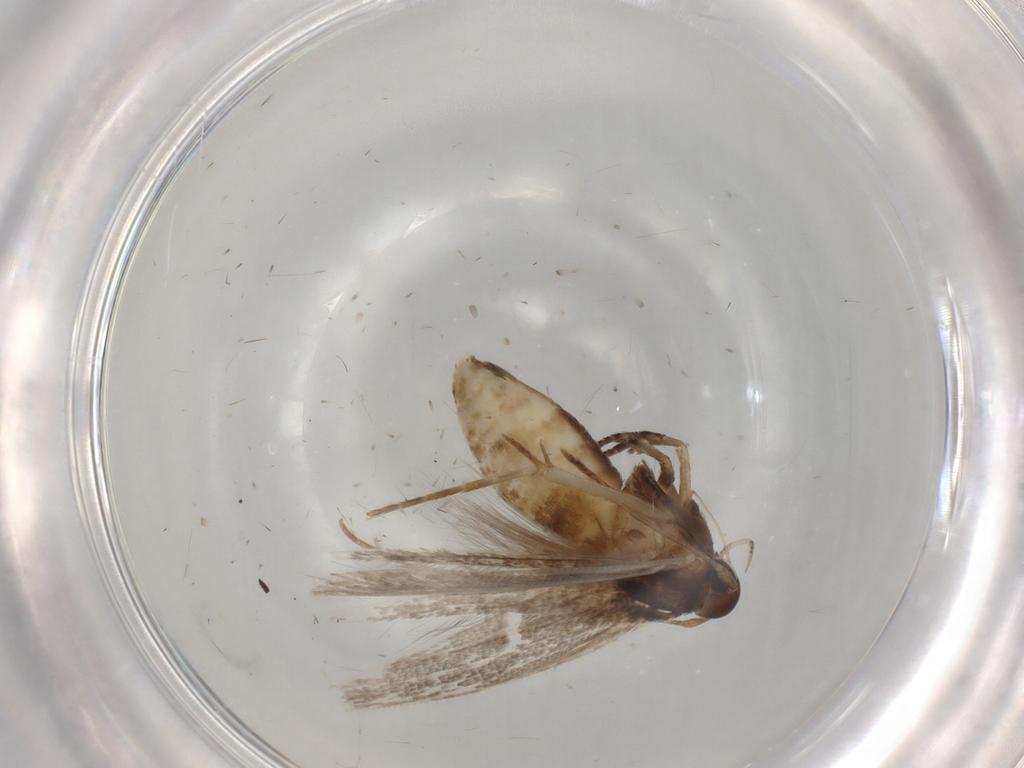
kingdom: Animalia
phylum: Arthropoda
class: Insecta
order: Lepidoptera
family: Cosmopterigidae
